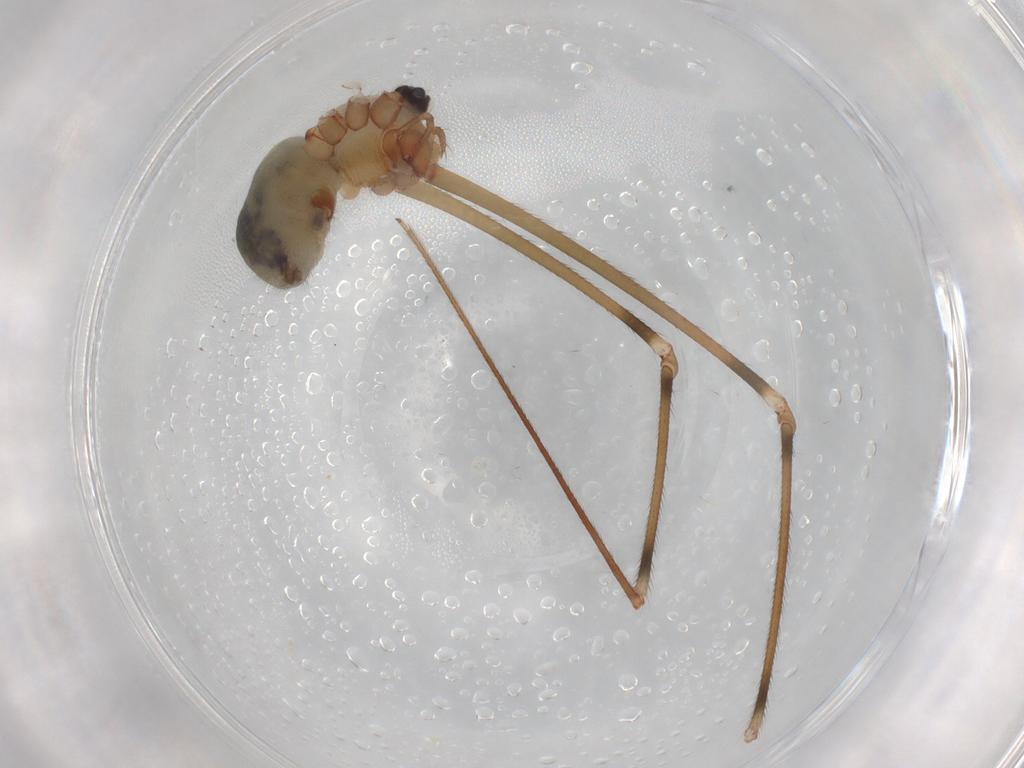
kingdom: Animalia
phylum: Arthropoda
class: Arachnida
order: Araneae
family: Pholcidae
